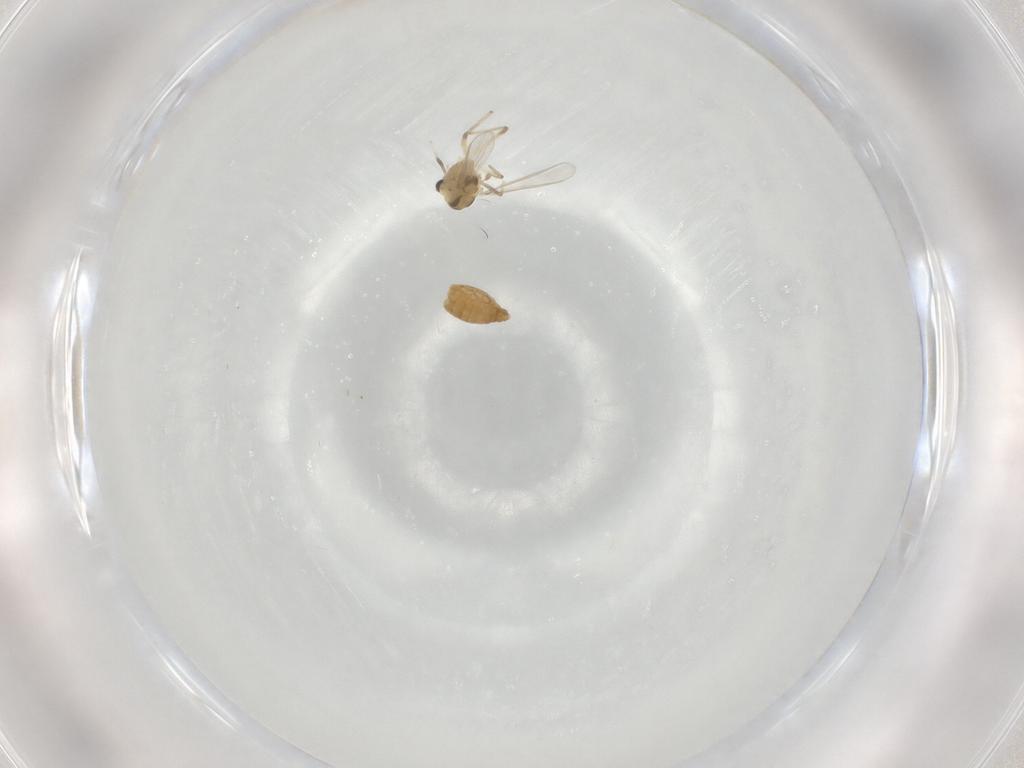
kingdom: Animalia
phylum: Arthropoda
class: Insecta
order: Diptera
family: Chironomidae
